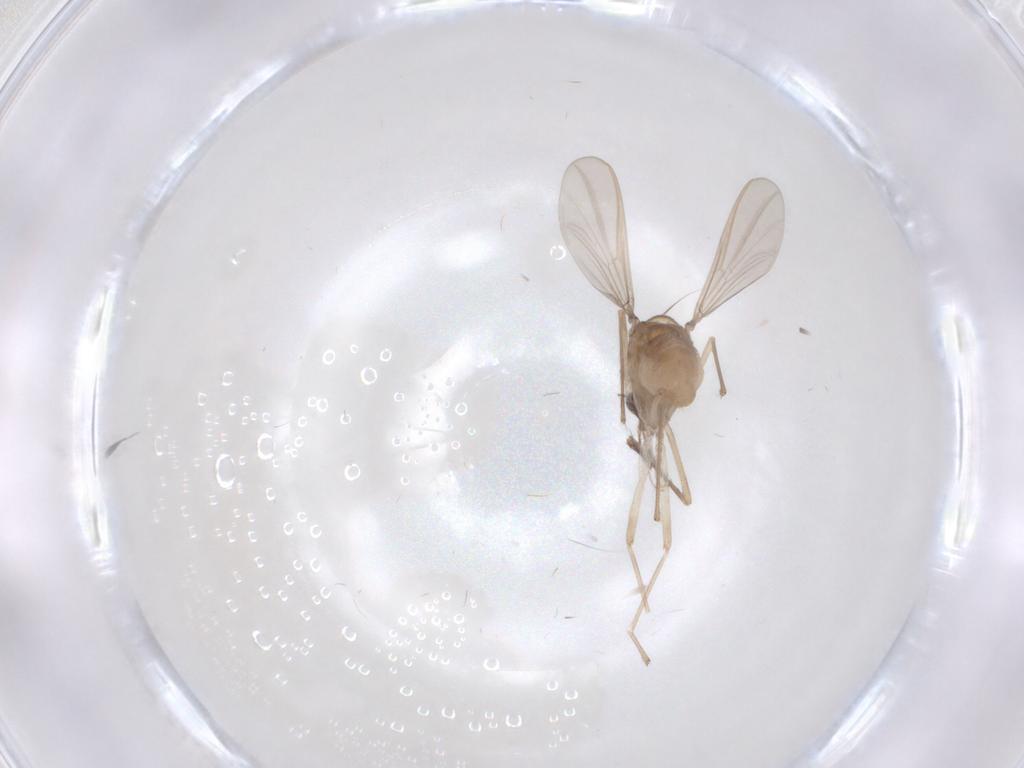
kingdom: Animalia
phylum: Arthropoda
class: Insecta
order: Diptera
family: Chironomidae
